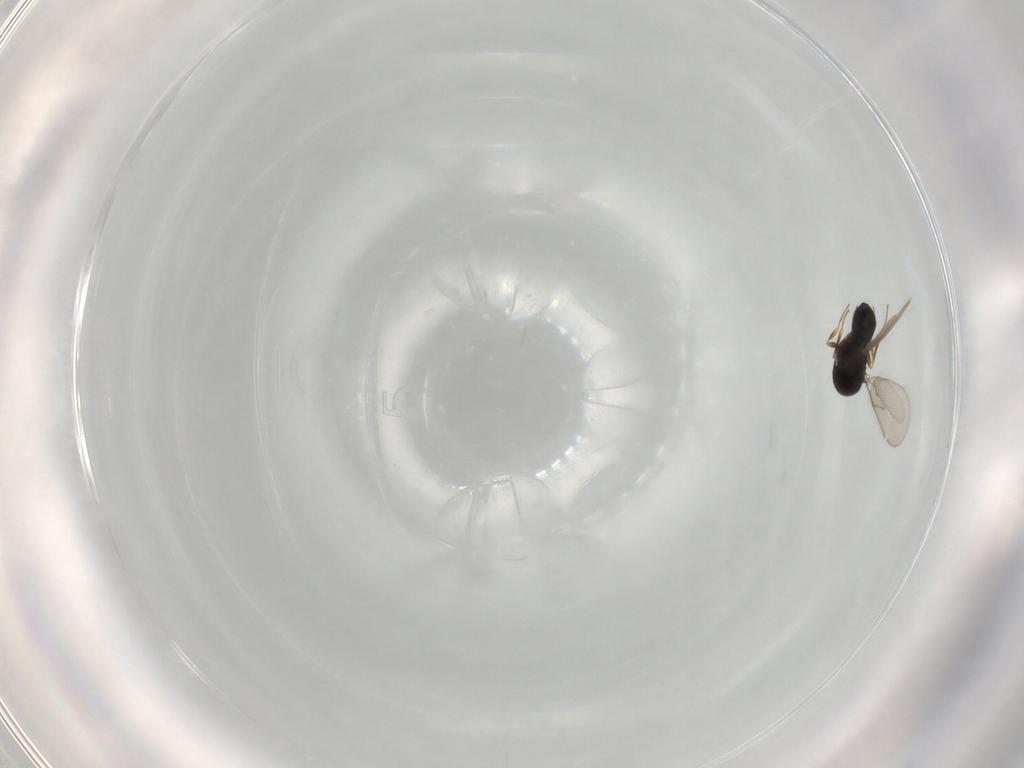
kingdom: Animalia
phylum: Arthropoda
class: Insecta
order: Hymenoptera
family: Scelionidae
